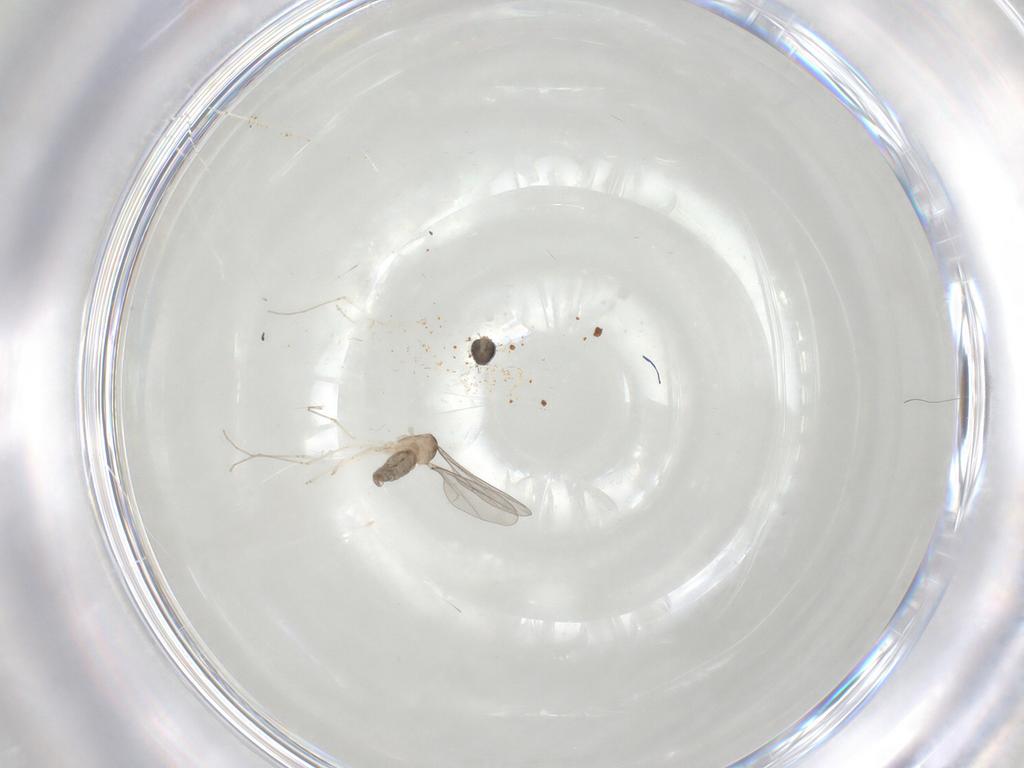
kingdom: Animalia
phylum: Arthropoda
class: Insecta
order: Diptera
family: Cecidomyiidae
